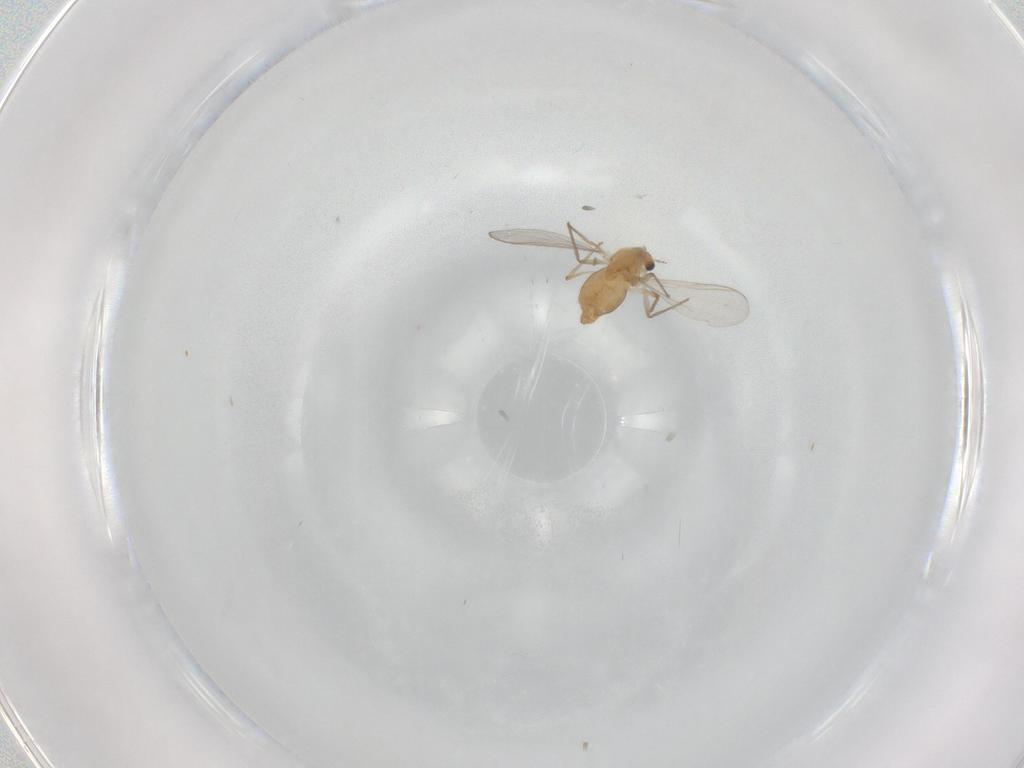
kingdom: Animalia
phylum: Arthropoda
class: Insecta
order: Diptera
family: Chironomidae
